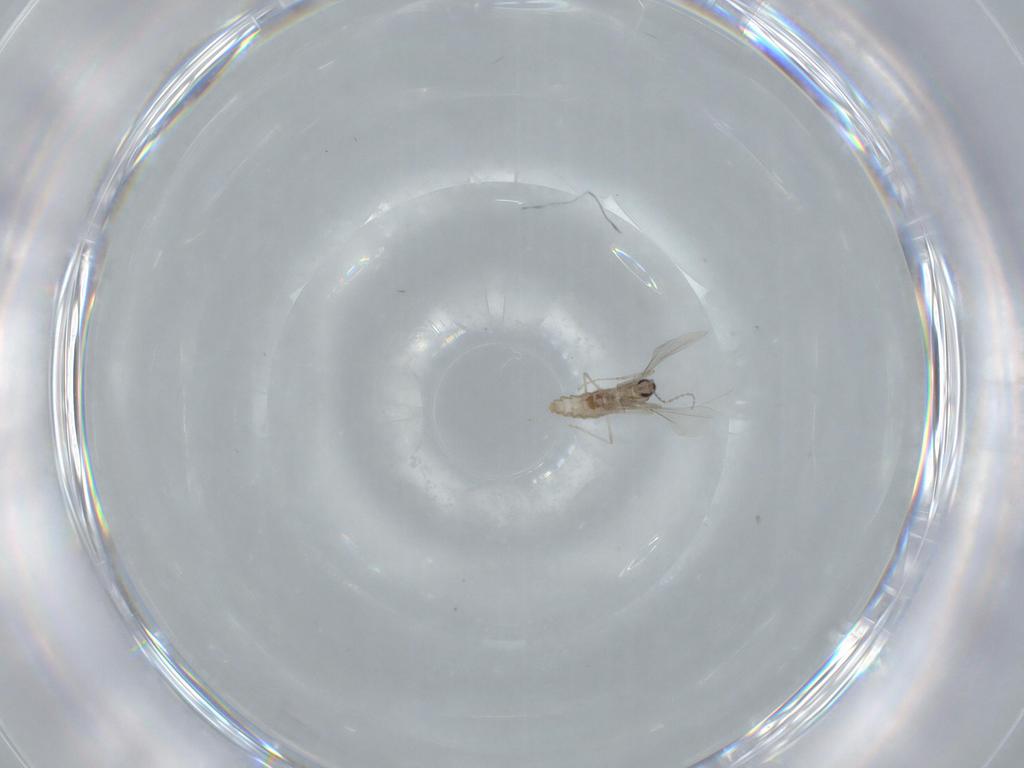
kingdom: Animalia
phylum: Arthropoda
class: Insecta
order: Diptera
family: Cecidomyiidae
